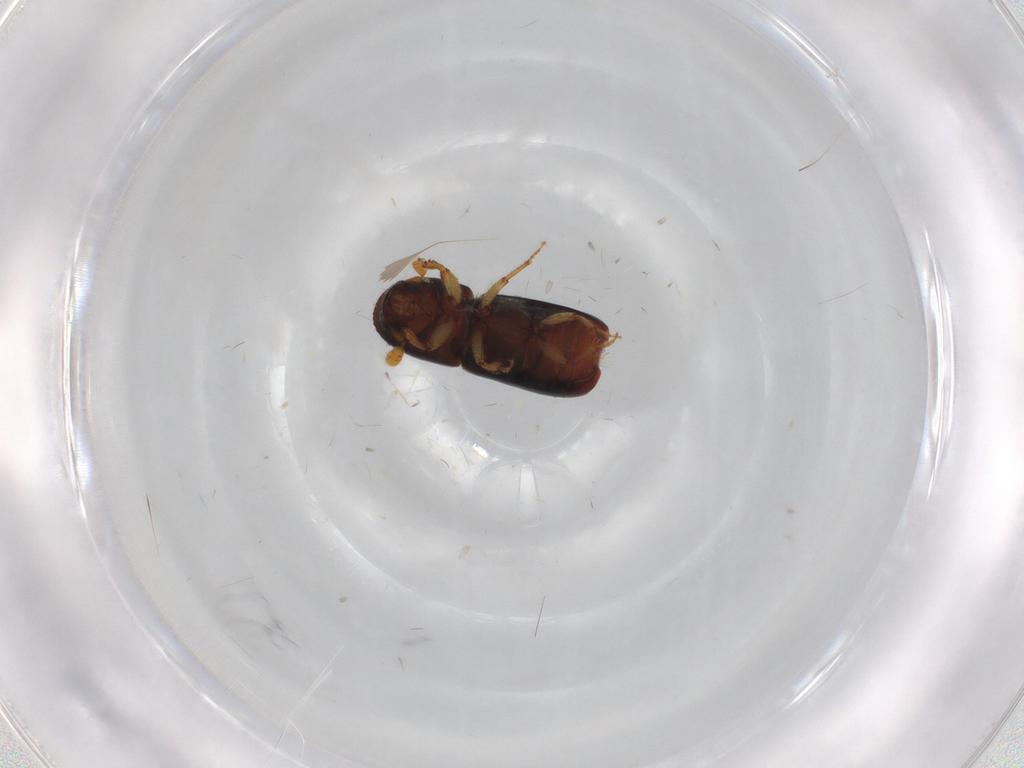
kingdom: Animalia
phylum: Arthropoda
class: Insecta
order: Coleoptera
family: Curculionidae
